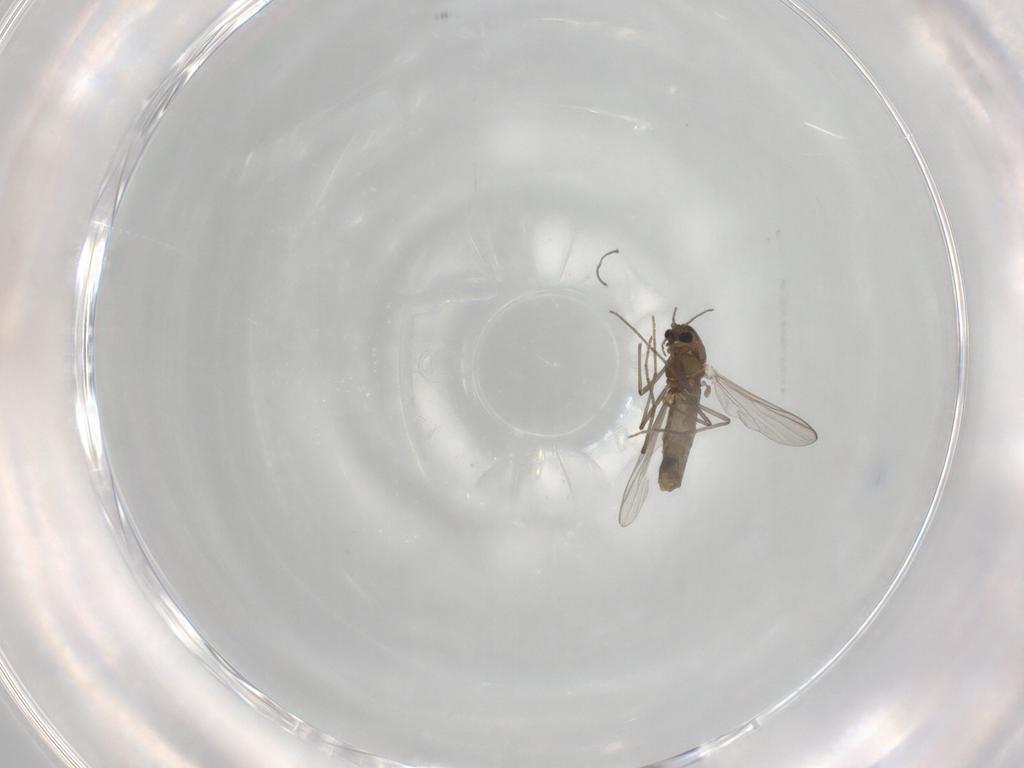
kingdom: Animalia
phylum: Arthropoda
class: Insecta
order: Diptera
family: Chironomidae
